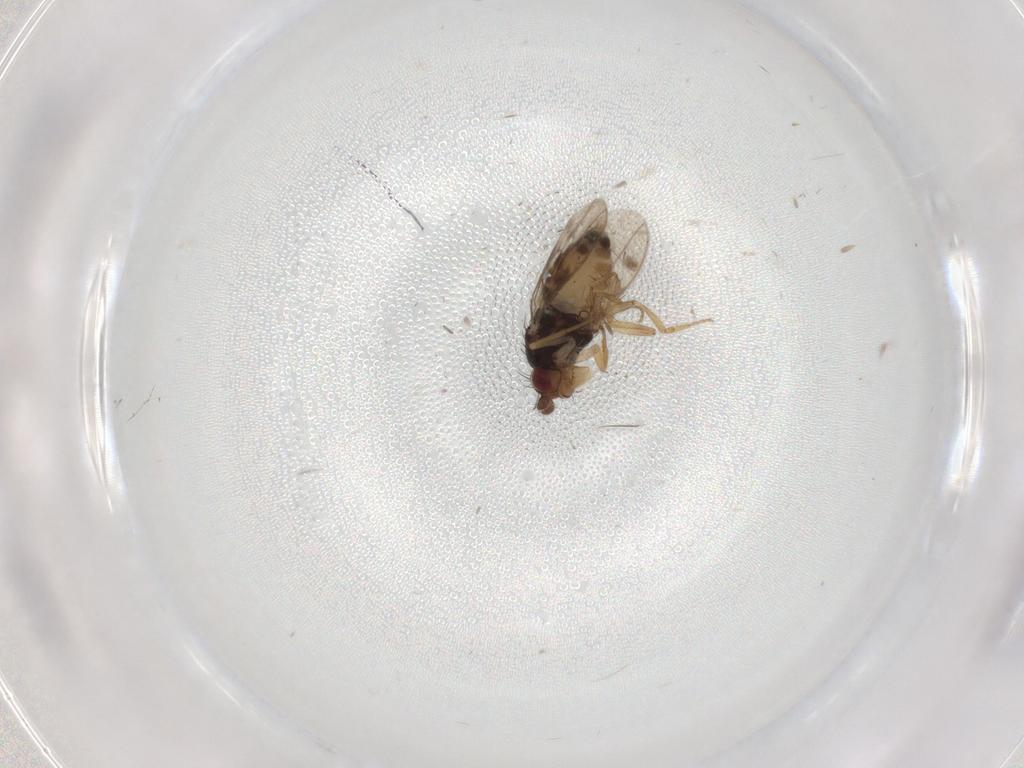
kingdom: Animalia
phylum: Arthropoda
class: Insecta
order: Diptera
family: Sphaeroceridae
